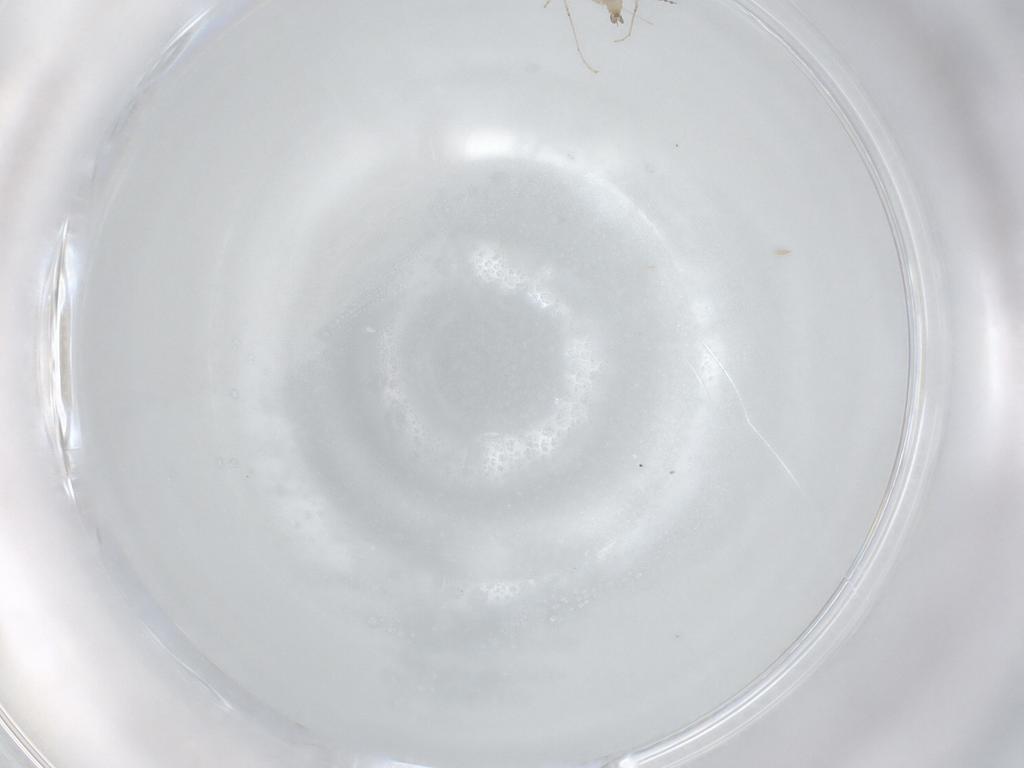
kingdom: Animalia
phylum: Arthropoda
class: Insecta
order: Diptera
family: Cecidomyiidae
